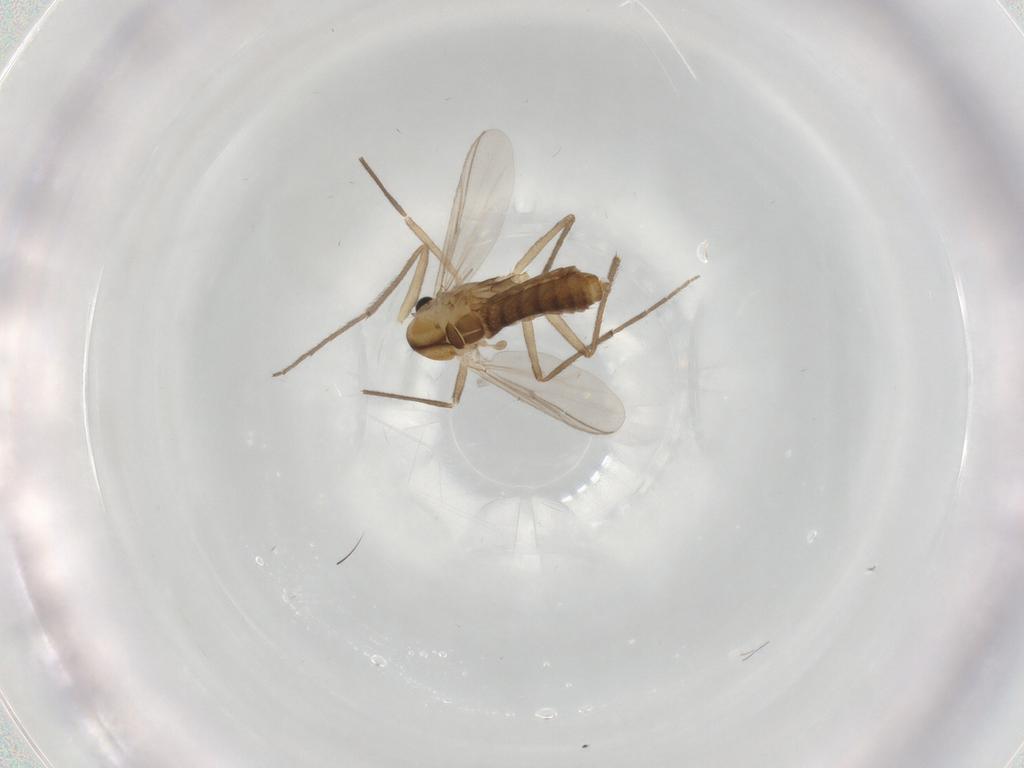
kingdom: Animalia
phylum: Arthropoda
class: Insecta
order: Diptera
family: Chironomidae
